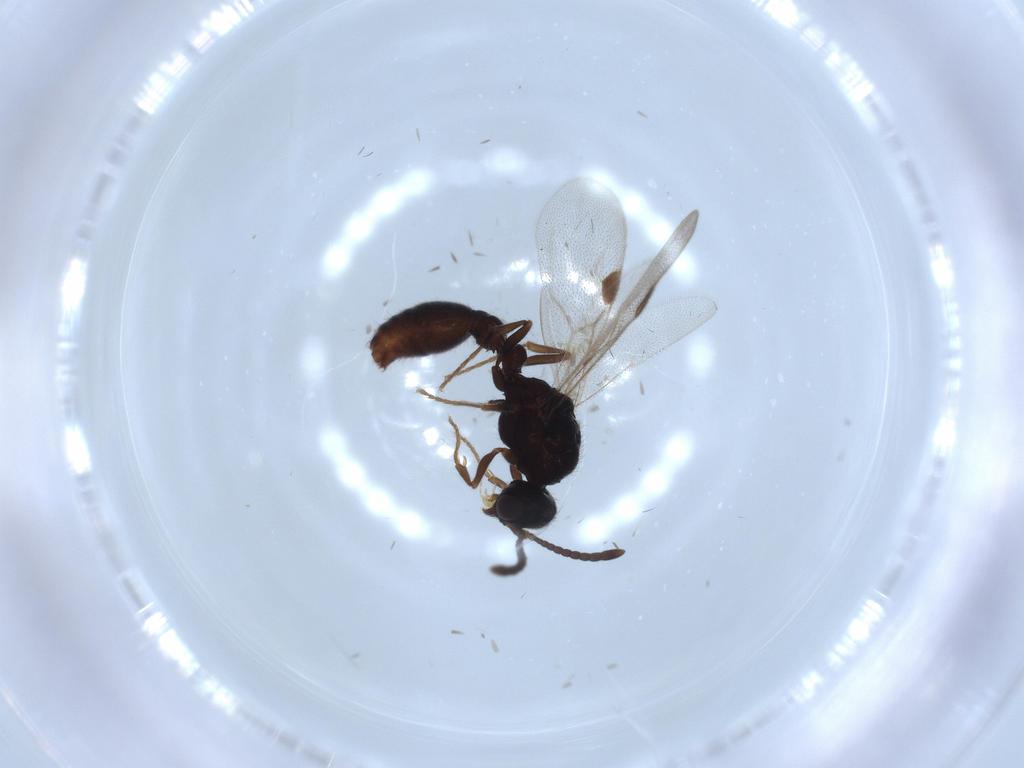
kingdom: Animalia
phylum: Arthropoda
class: Insecta
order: Hymenoptera
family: Formicidae
